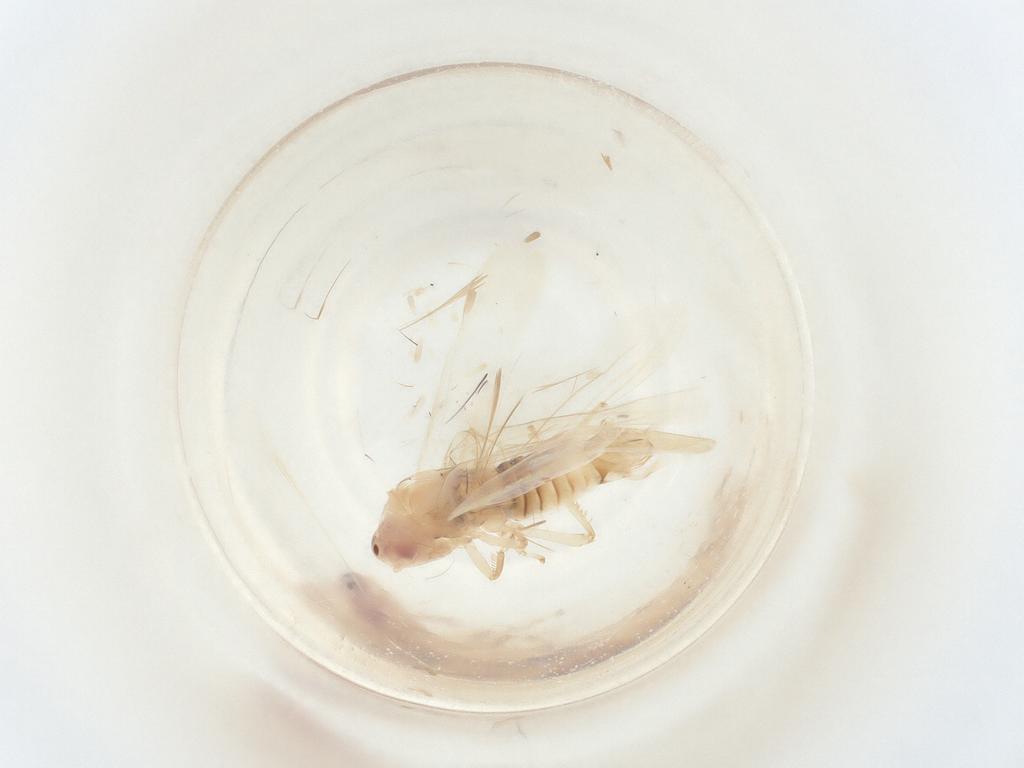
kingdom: Animalia
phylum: Arthropoda
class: Insecta
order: Hemiptera
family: Cicadellidae
